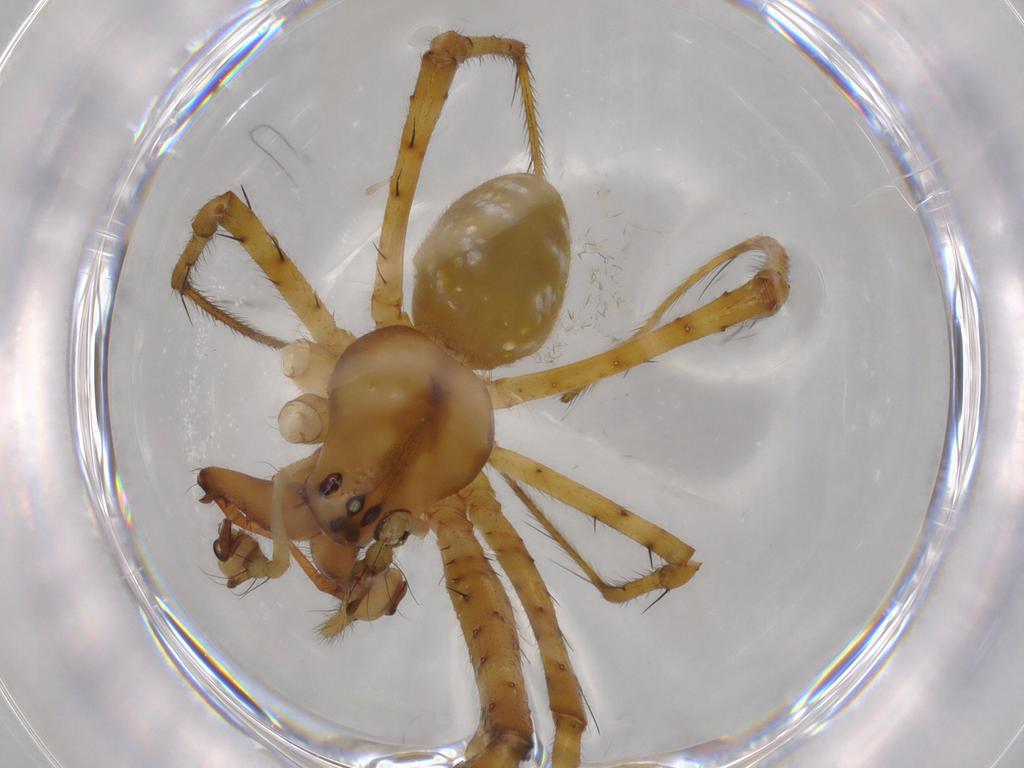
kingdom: Animalia
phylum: Arthropoda
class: Arachnida
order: Araneae
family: Tetragnathidae
